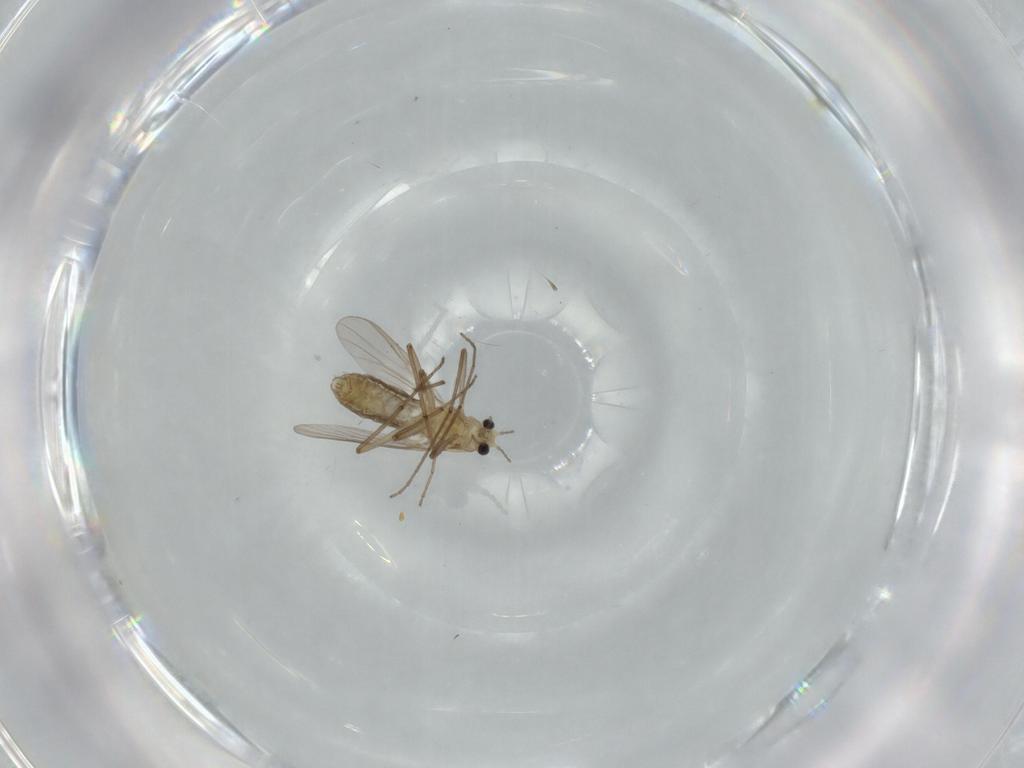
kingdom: Animalia
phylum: Arthropoda
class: Insecta
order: Diptera
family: Chironomidae
